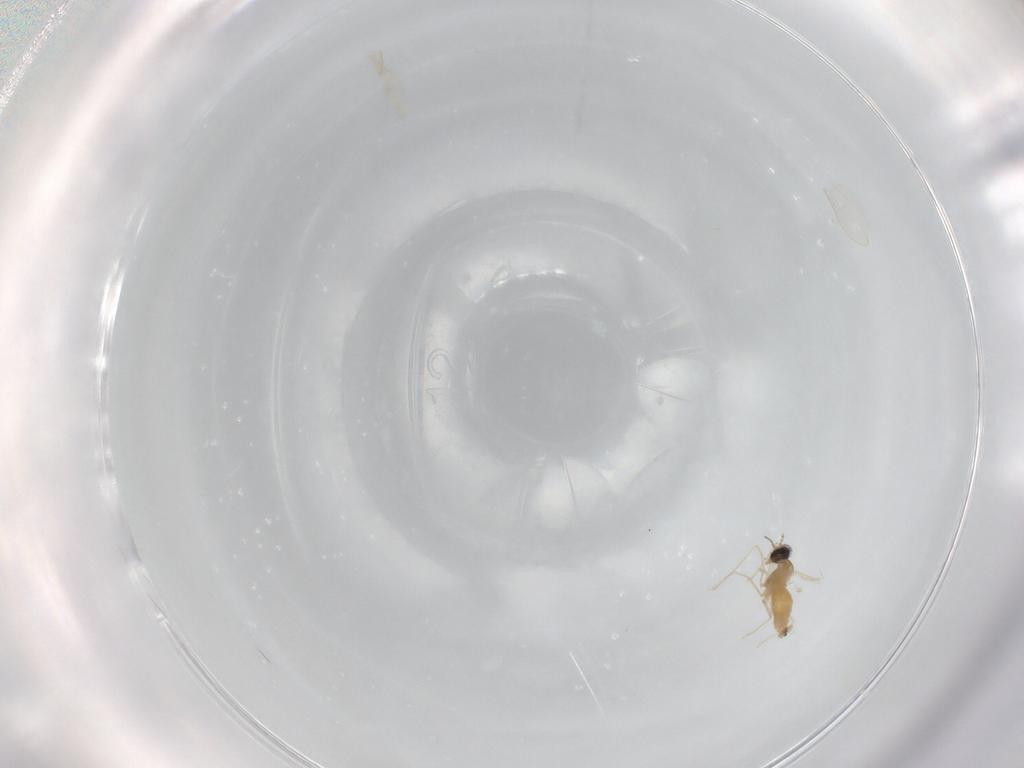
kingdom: Animalia
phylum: Arthropoda
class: Insecta
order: Diptera
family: Cecidomyiidae
